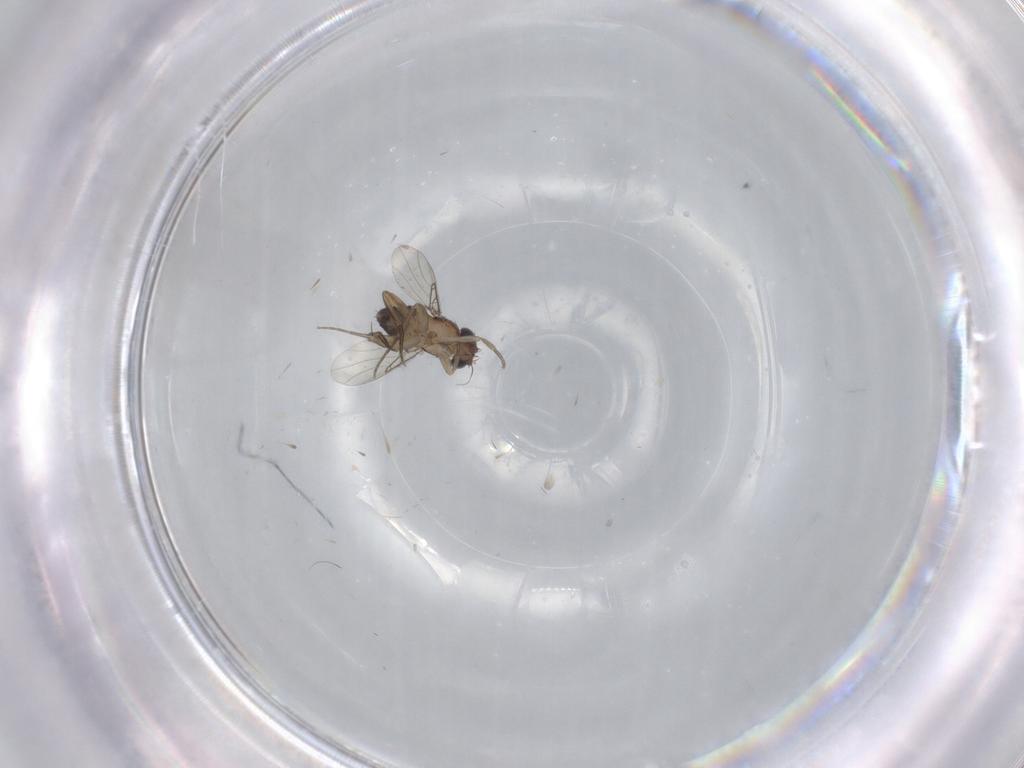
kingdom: Animalia
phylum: Arthropoda
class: Insecta
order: Diptera
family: Phoridae
